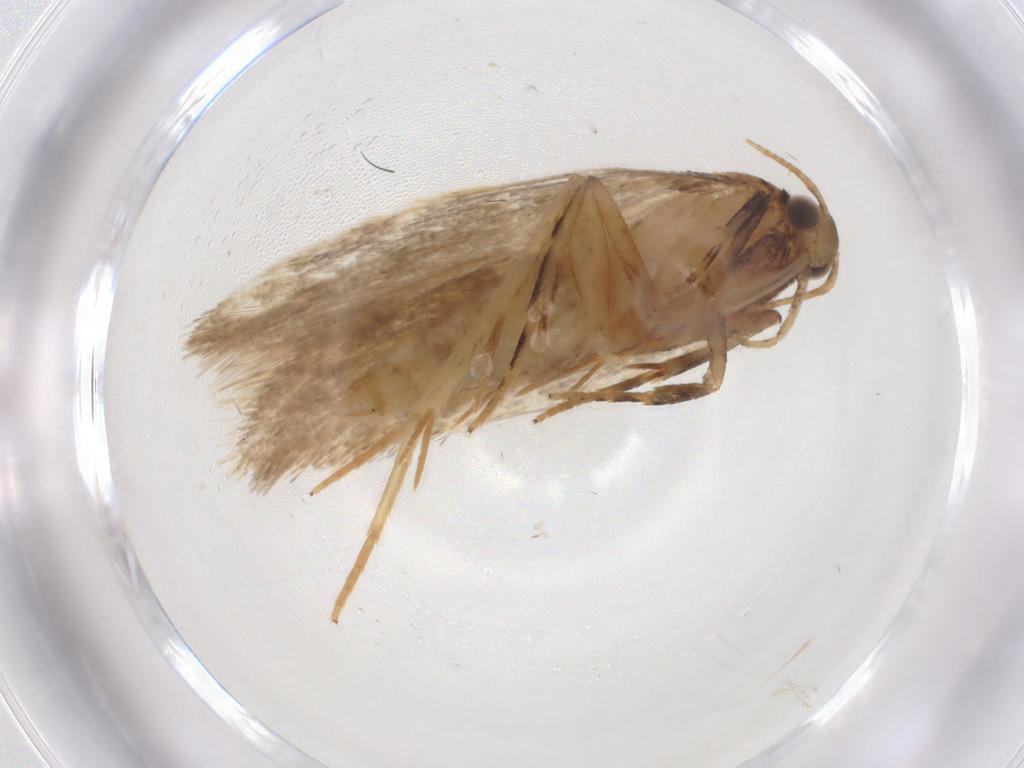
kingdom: Animalia
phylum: Arthropoda
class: Insecta
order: Lepidoptera
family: Gelechiidae
